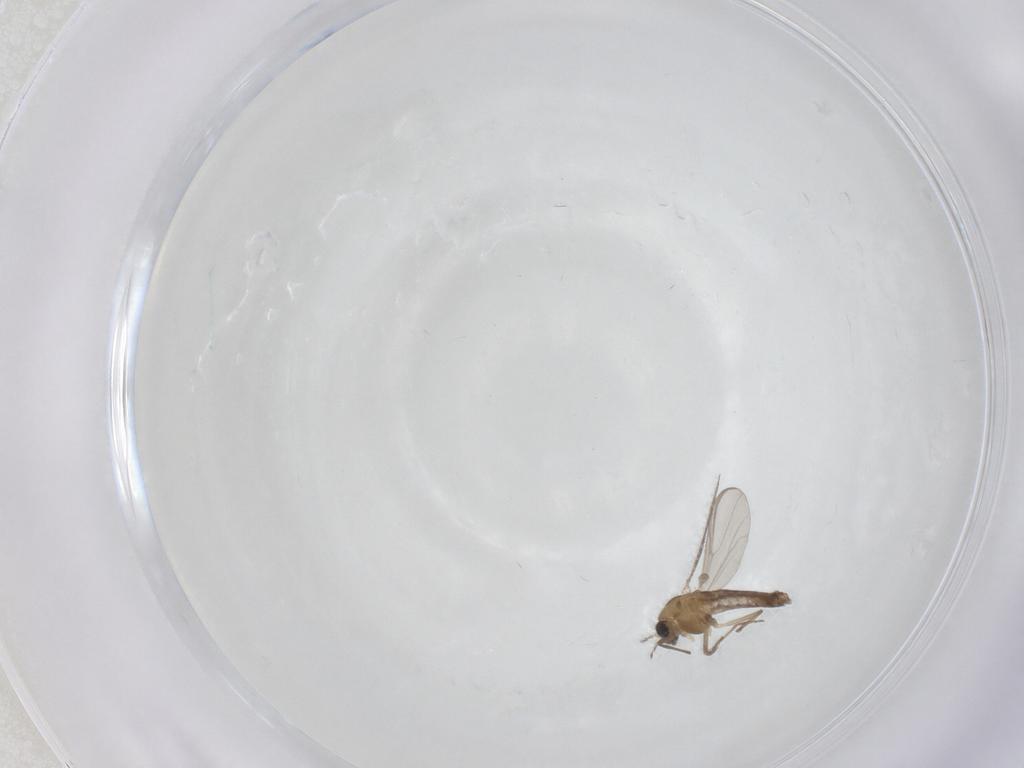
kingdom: Animalia
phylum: Arthropoda
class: Insecta
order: Diptera
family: Chironomidae
